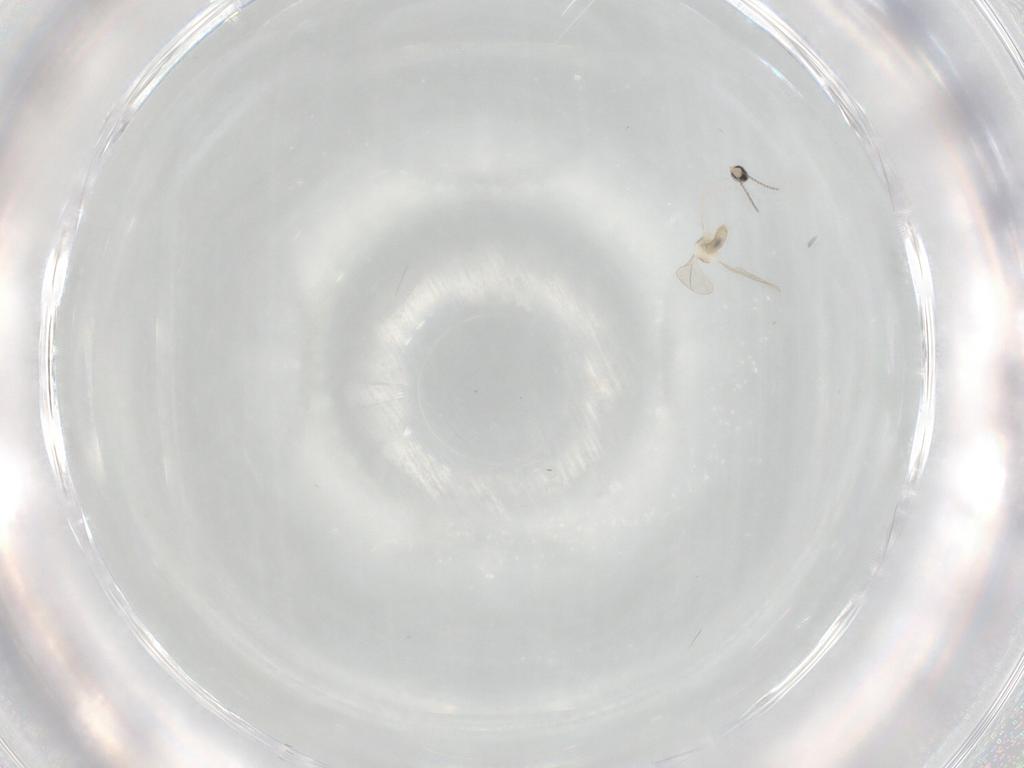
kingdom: Animalia
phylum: Arthropoda
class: Insecta
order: Diptera
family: Cecidomyiidae
